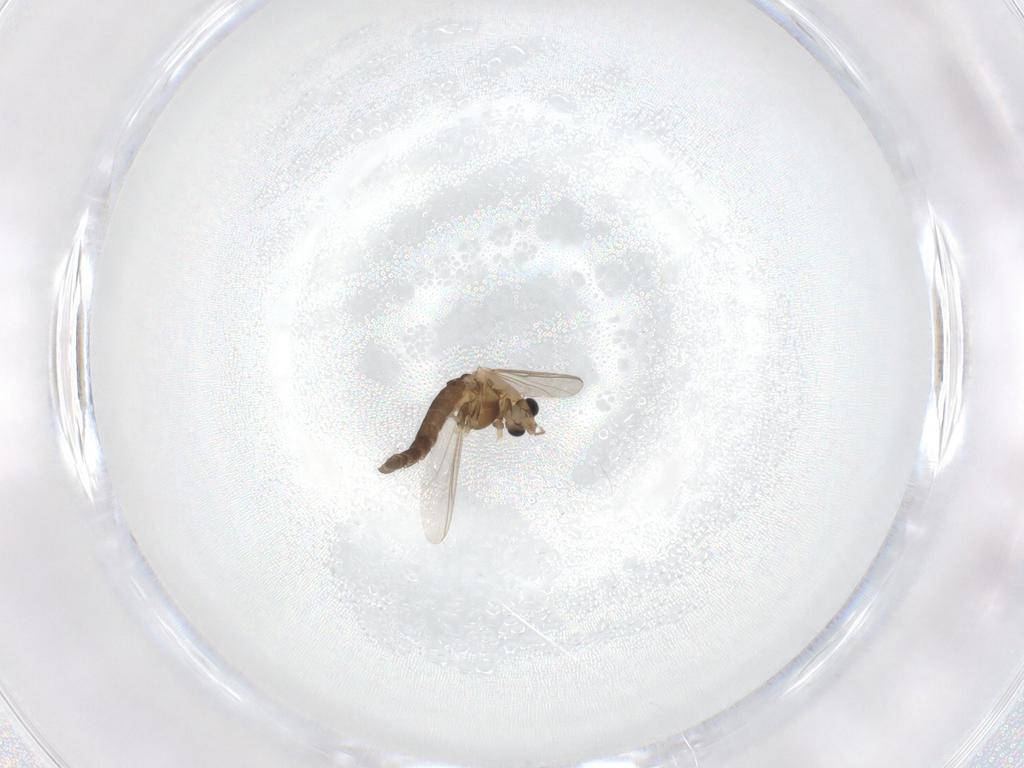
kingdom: Animalia
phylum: Arthropoda
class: Insecta
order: Diptera
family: Chironomidae
